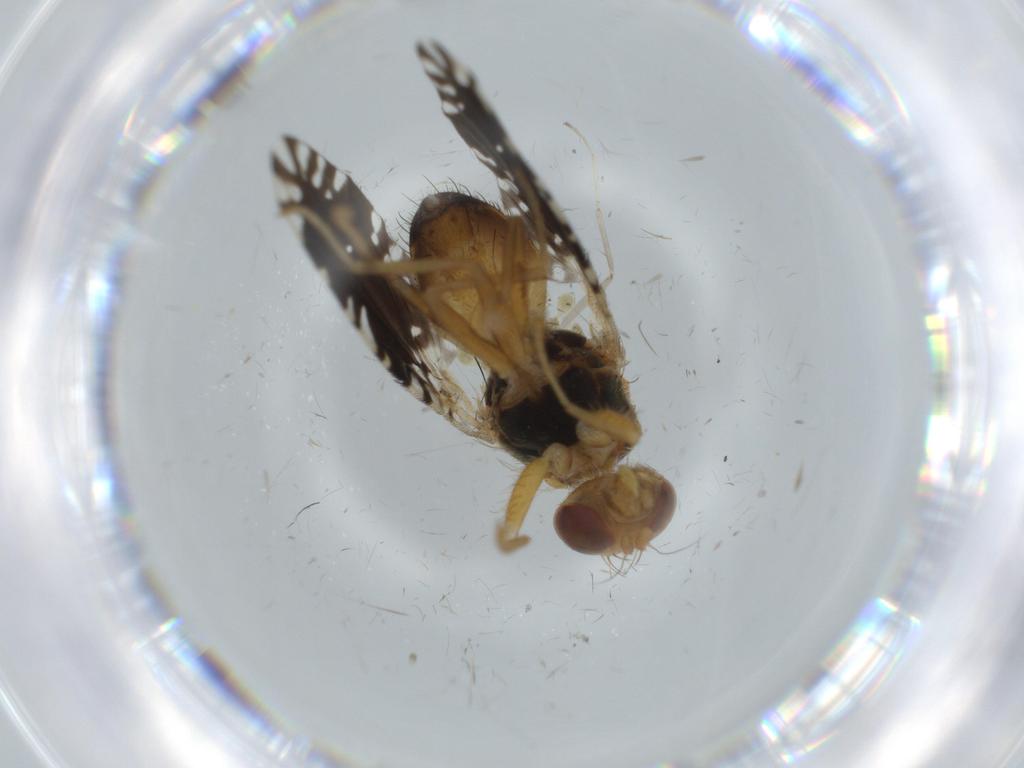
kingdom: Animalia
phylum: Arthropoda
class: Insecta
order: Diptera
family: Tephritidae
